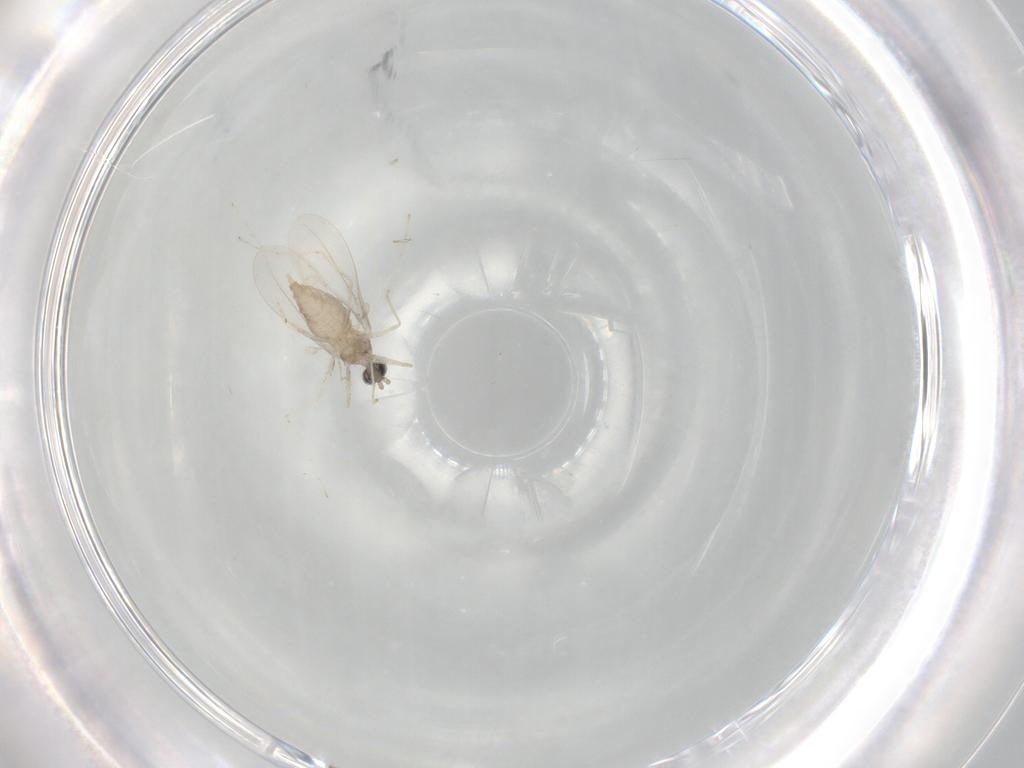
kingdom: Animalia
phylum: Arthropoda
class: Insecta
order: Diptera
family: Cecidomyiidae
